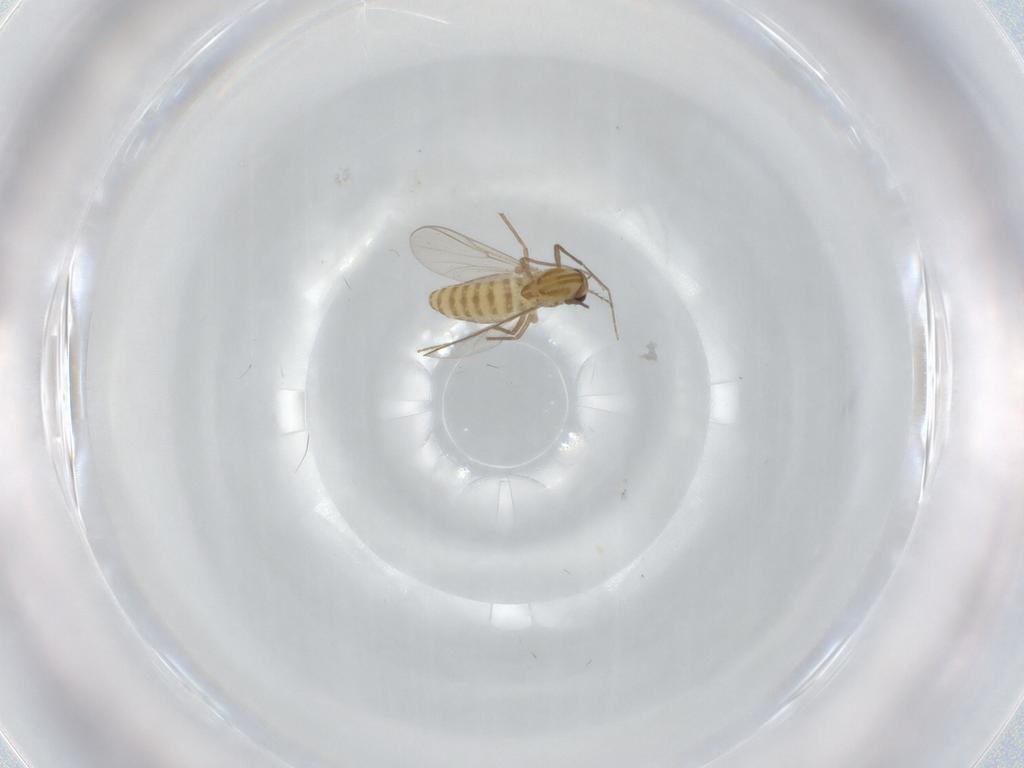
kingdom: Animalia
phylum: Arthropoda
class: Insecta
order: Diptera
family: Chironomidae
